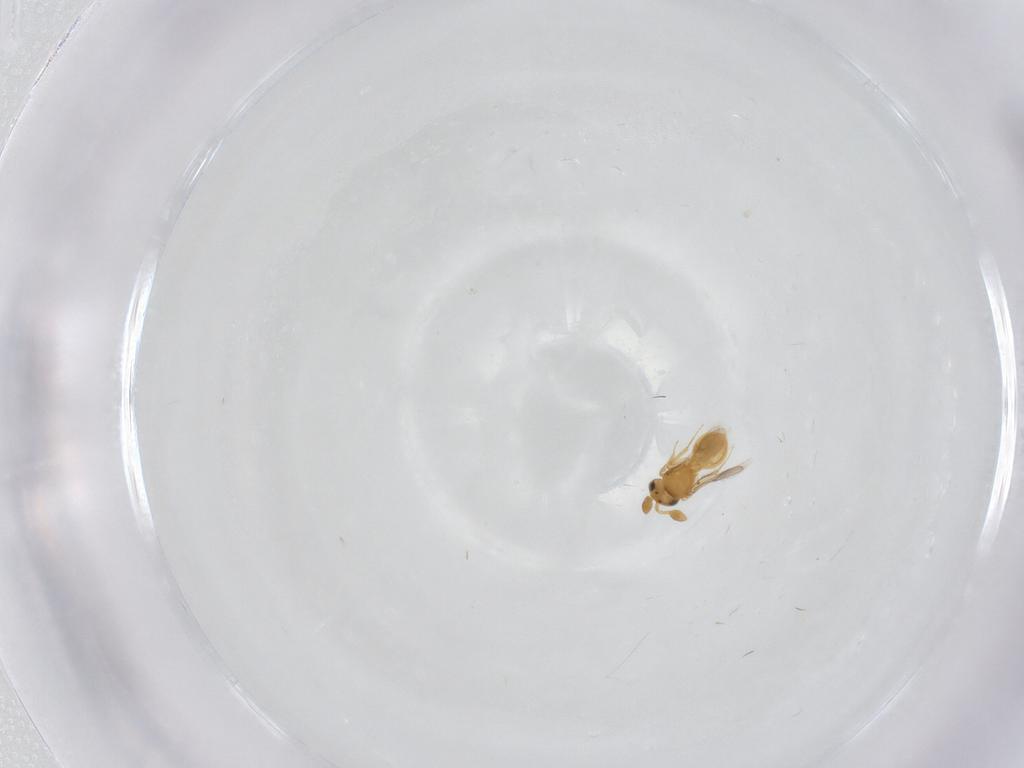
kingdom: Animalia
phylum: Arthropoda
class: Insecta
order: Hymenoptera
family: Scelionidae
